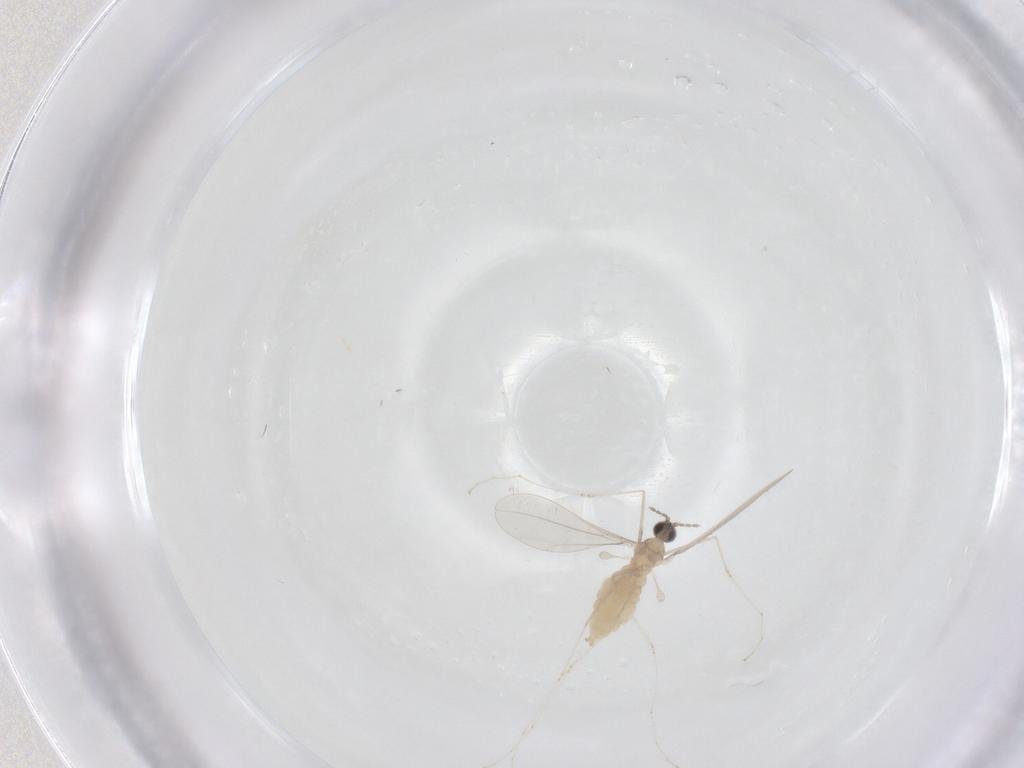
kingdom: Animalia
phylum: Arthropoda
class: Insecta
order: Diptera
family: Cecidomyiidae
